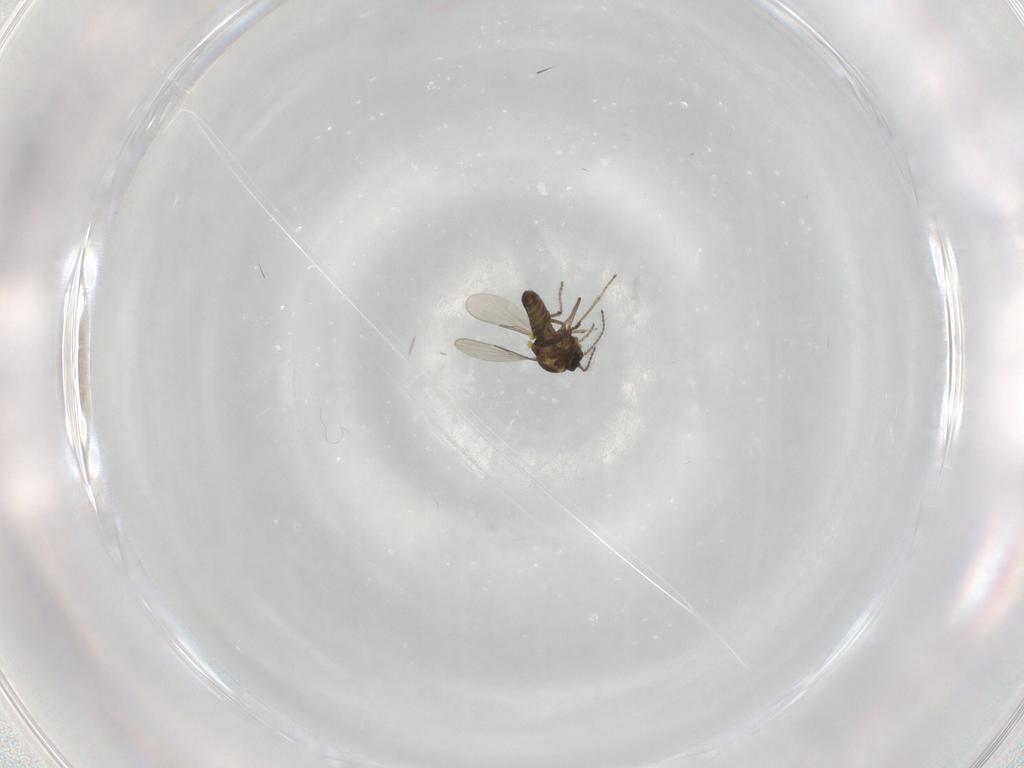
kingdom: Animalia
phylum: Arthropoda
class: Insecta
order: Diptera
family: Ceratopogonidae
